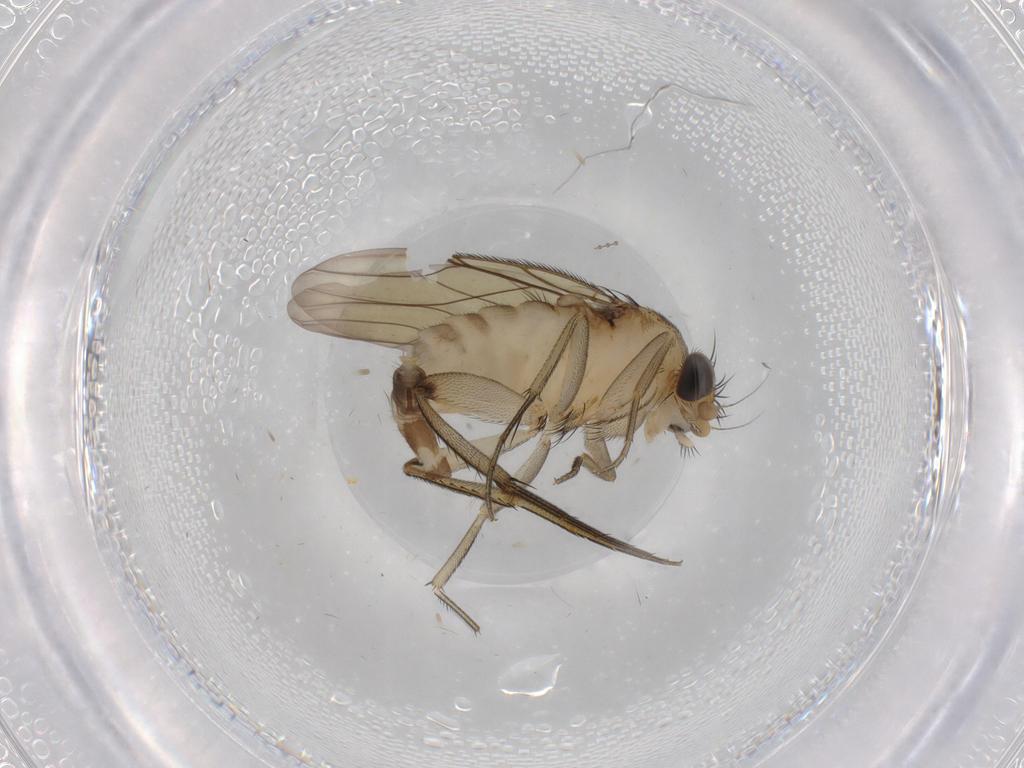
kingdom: Animalia
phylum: Arthropoda
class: Insecta
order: Diptera
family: Phoridae
